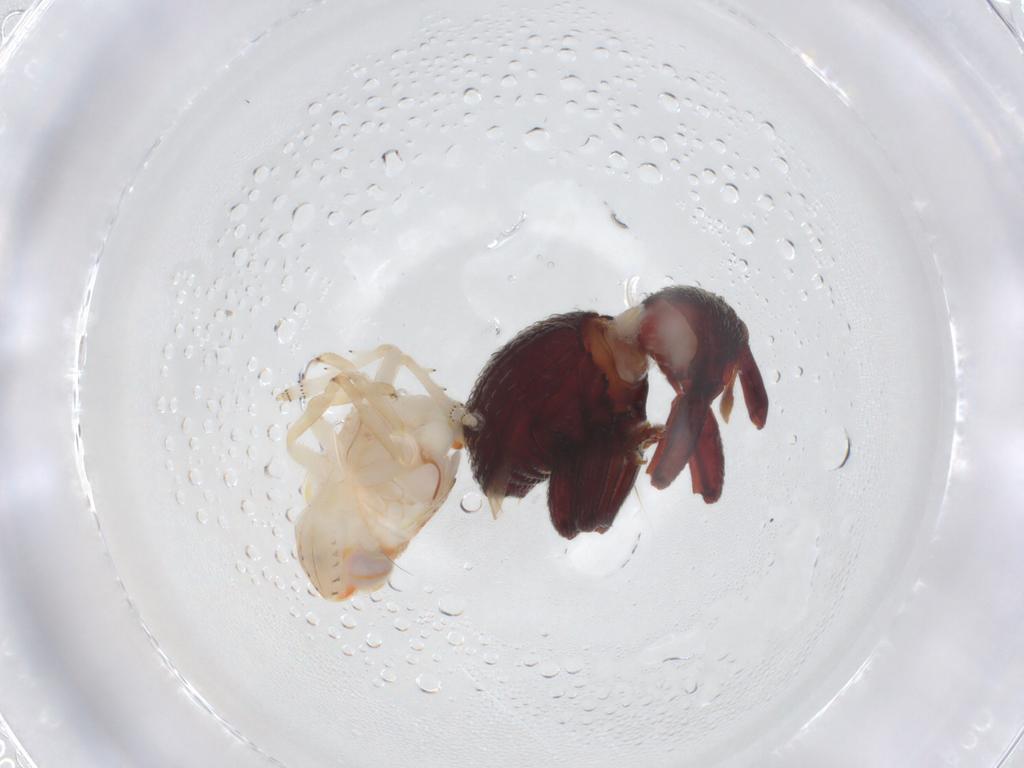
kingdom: Animalia
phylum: Arthropoda
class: Insecta
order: Coleoptera
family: Curculionidae
